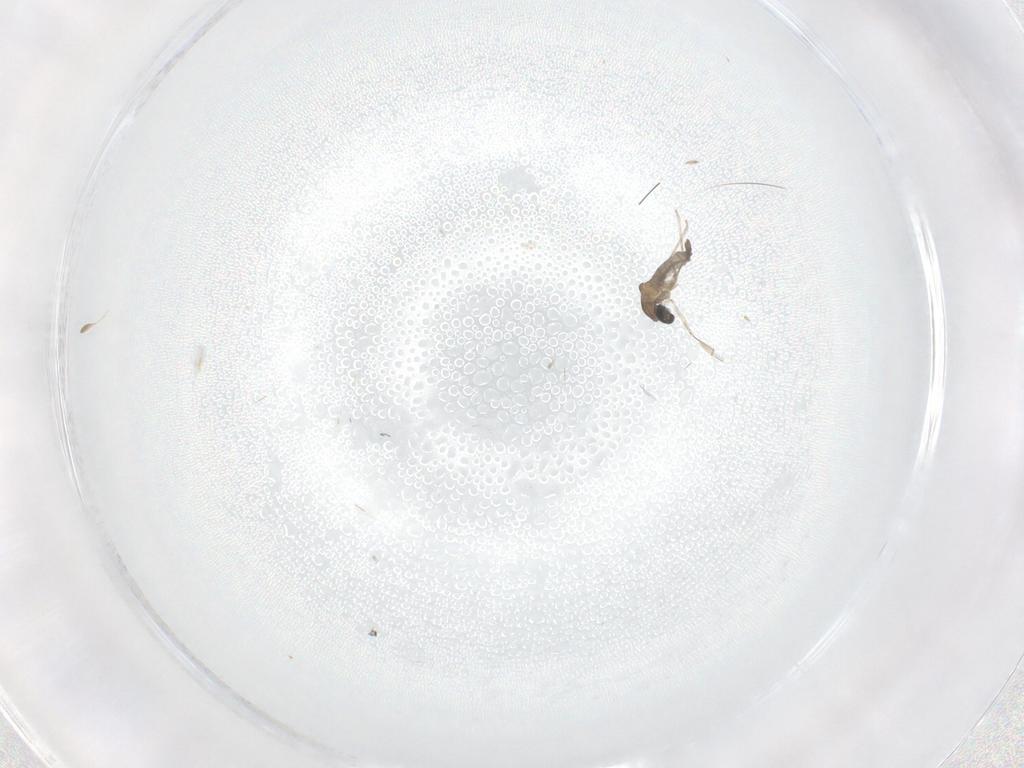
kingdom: Animalia
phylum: Arthropoda
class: Insecta
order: Diptera
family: Cecidomyiidae
